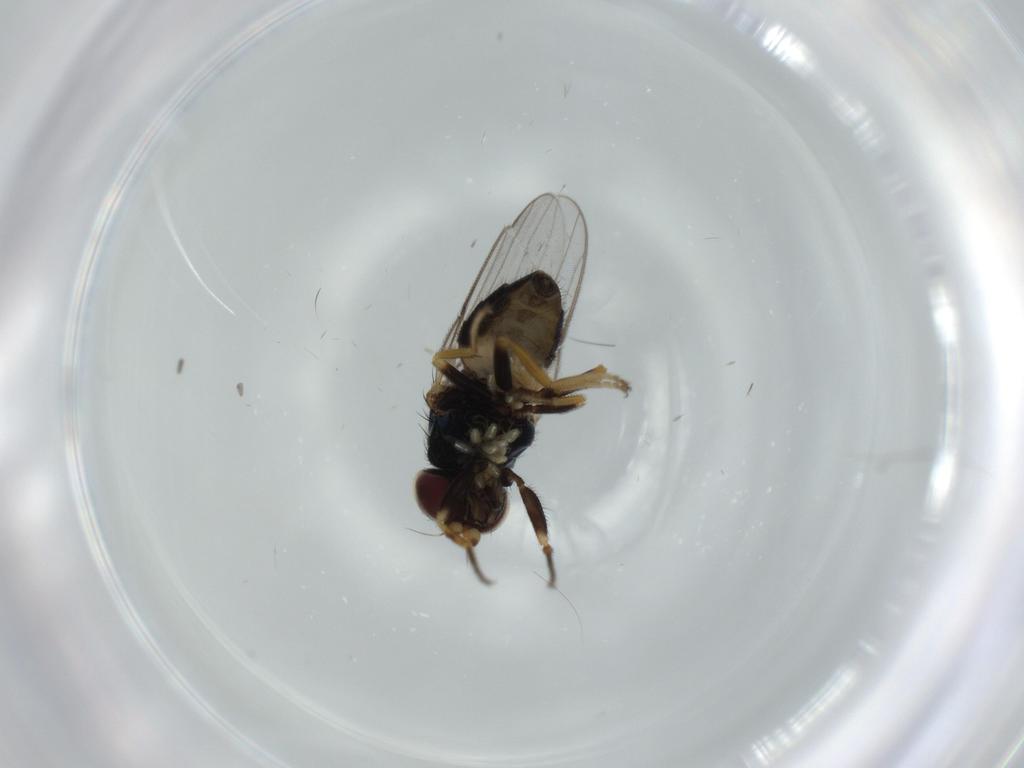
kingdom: Animalia
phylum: Arthropoda
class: Insecta
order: Diptera
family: Chloropidae
